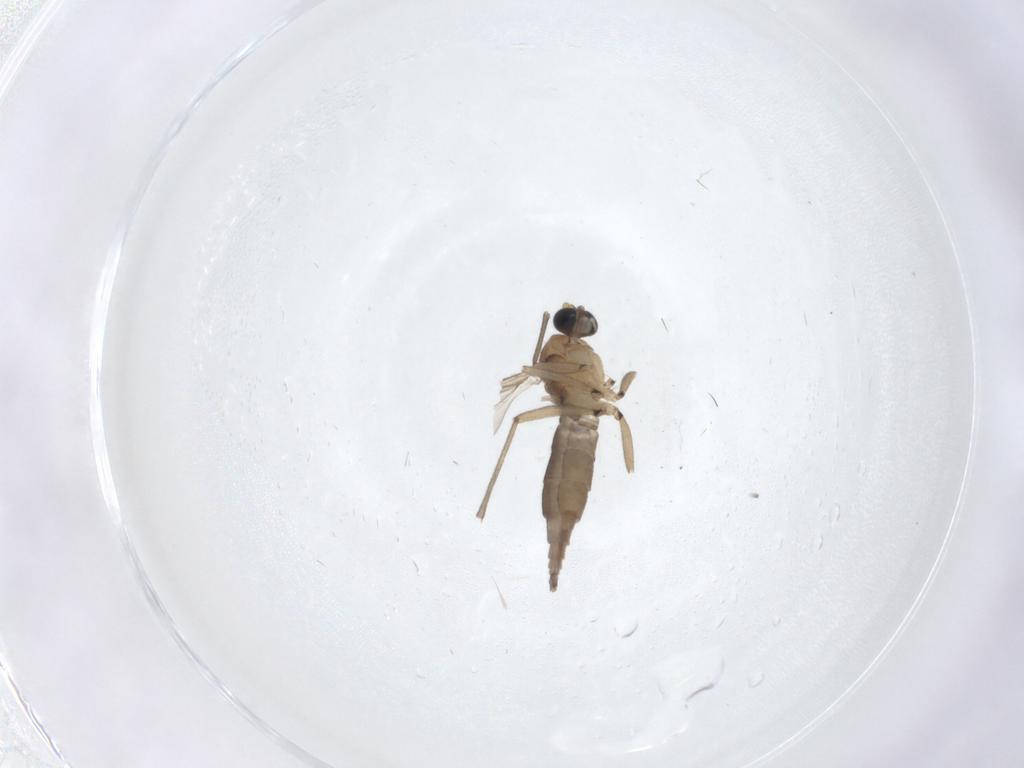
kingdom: Animalia
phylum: Arthropoda
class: Insecta
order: Diptera
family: Sciaridae
